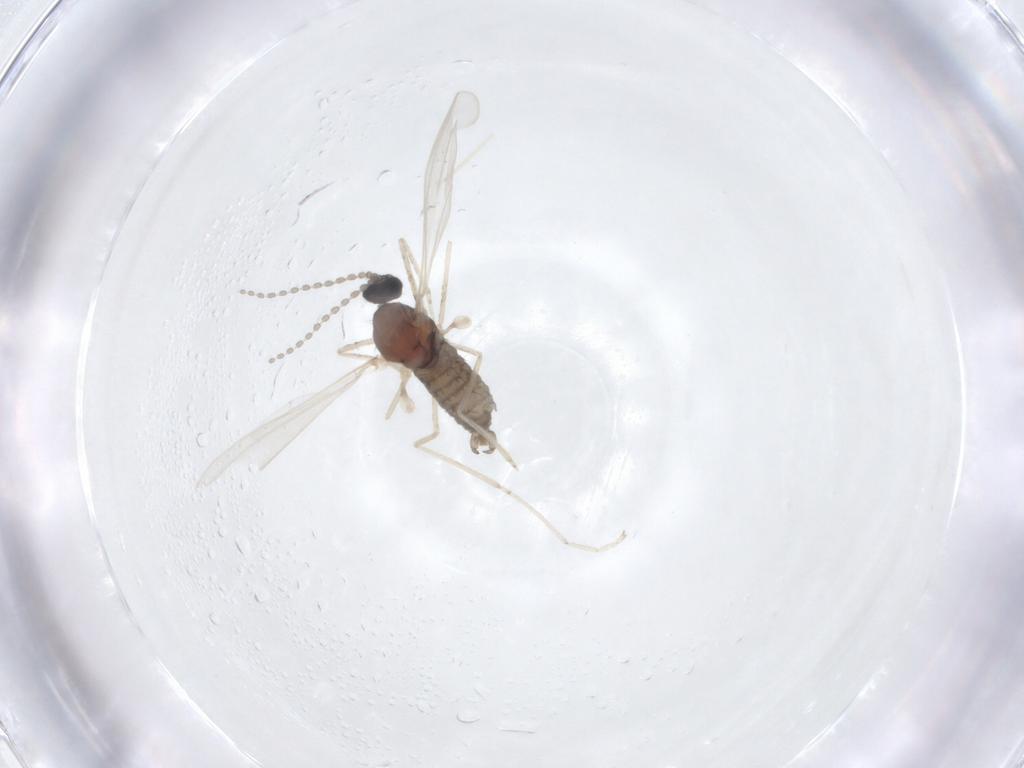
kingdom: Animalia
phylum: Arthropoda
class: Insecta
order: Diptera
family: Cecidomyiidae
